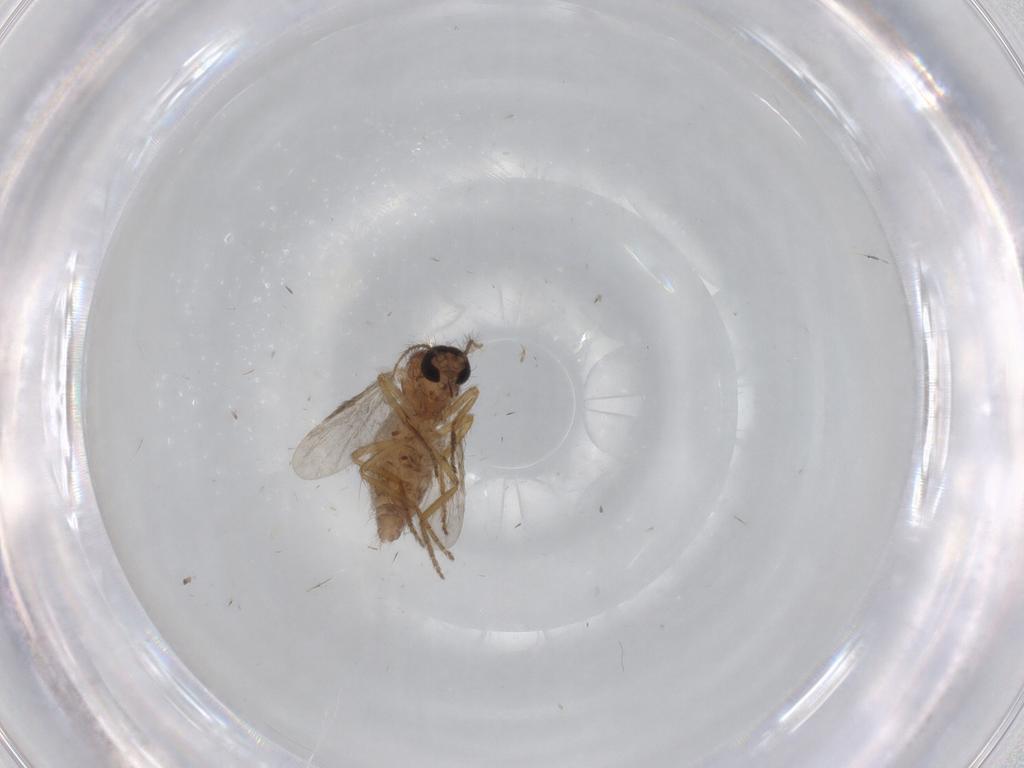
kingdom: Animalia
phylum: Arthropoda
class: Insecta
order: Diptera
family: Ceratopogonidae
